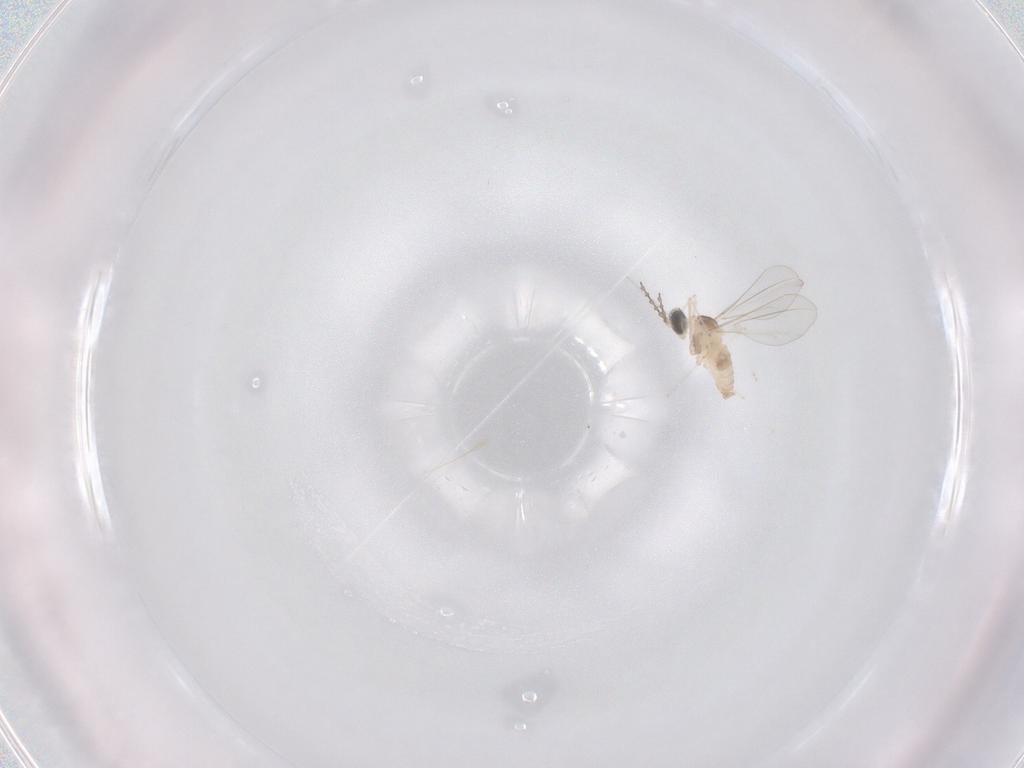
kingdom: Animalia
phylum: Arthropoda
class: Insecta
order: Diptera
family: Cecidomyiidae
